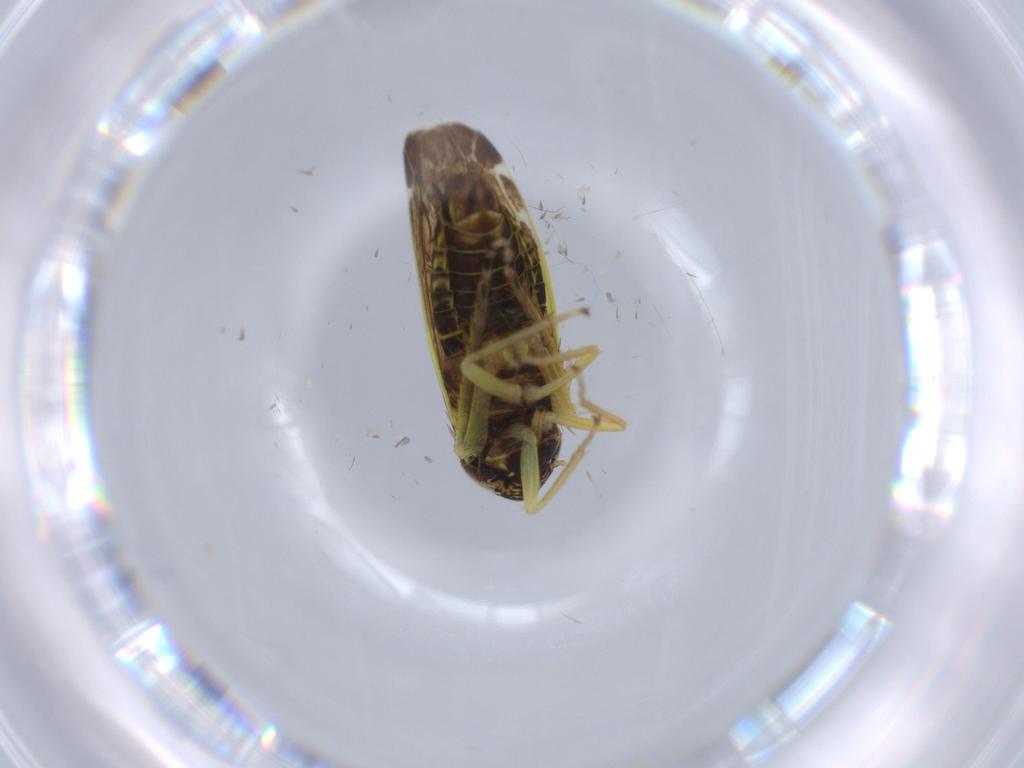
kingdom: Animalia
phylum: Arthropoda
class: Insecta
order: Hemiptera
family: Cicadellidae
